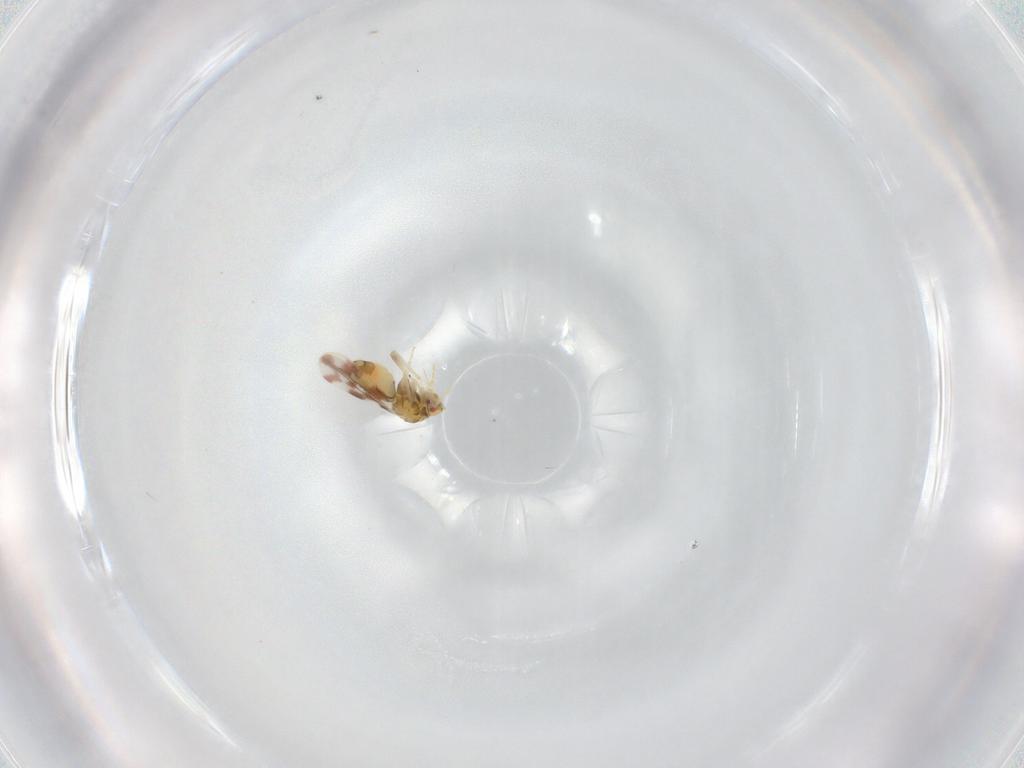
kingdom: Animalia
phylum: Arthropoda
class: Insecta
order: Hemiptera
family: Aleyrodidae
